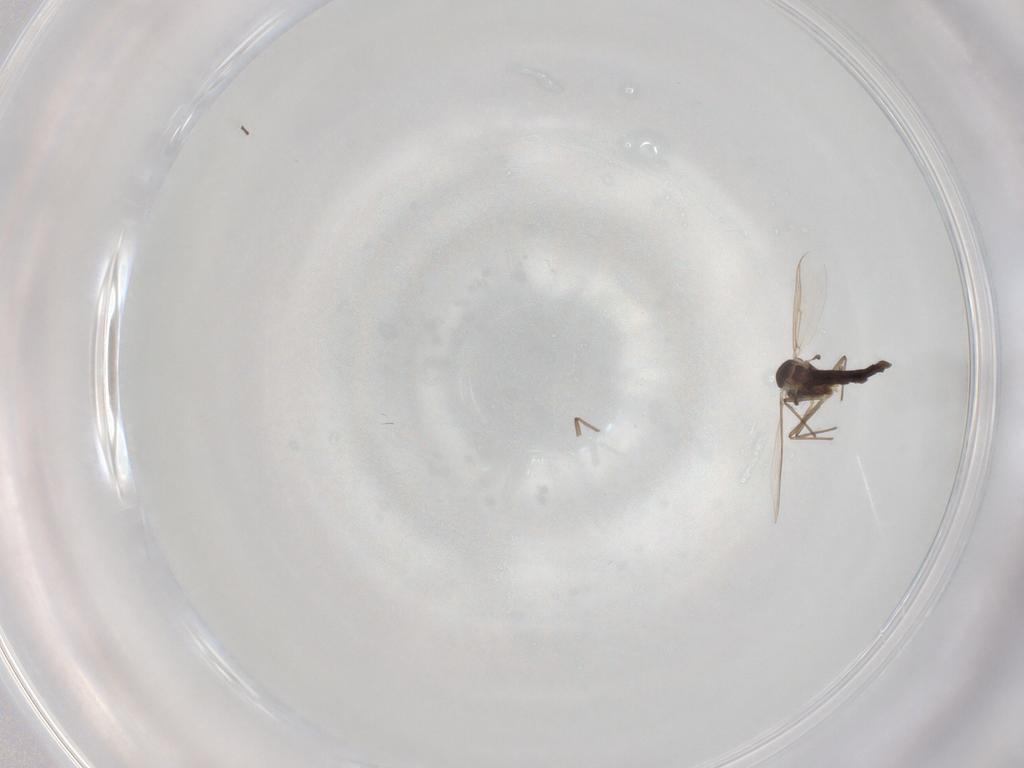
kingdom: Animalia
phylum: Arthropoda
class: Insecta
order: Diptera
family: Chironomidae
